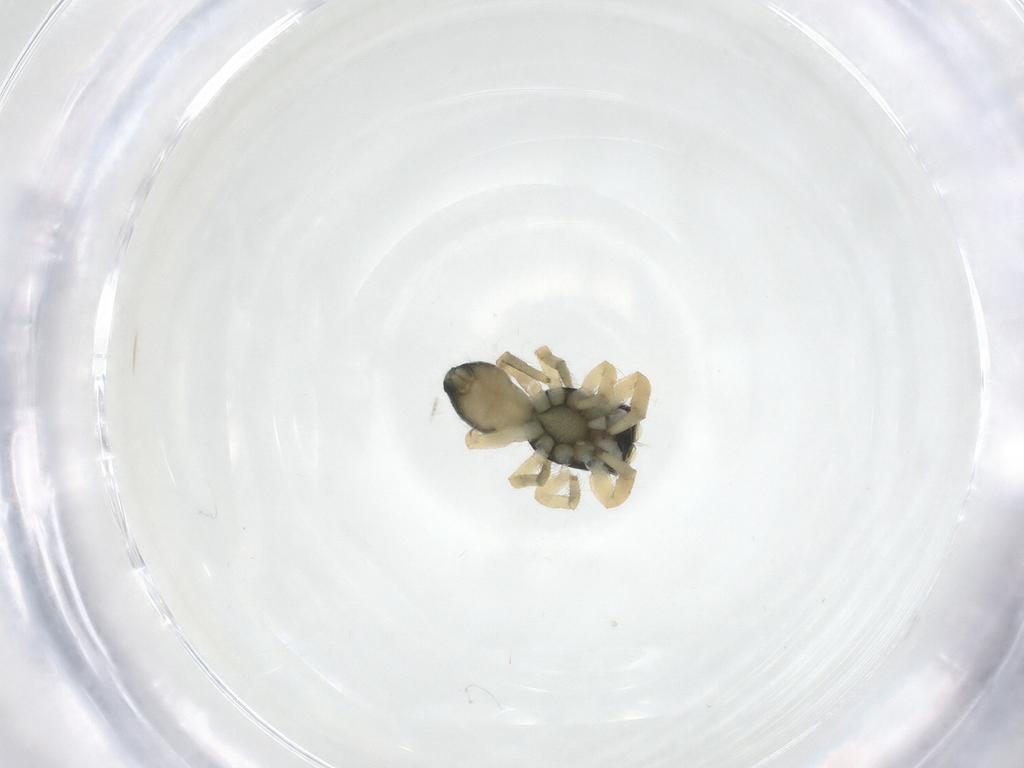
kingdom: Animalia
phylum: Arthropoda
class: Arachnida
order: Araneae
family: Salticidae
